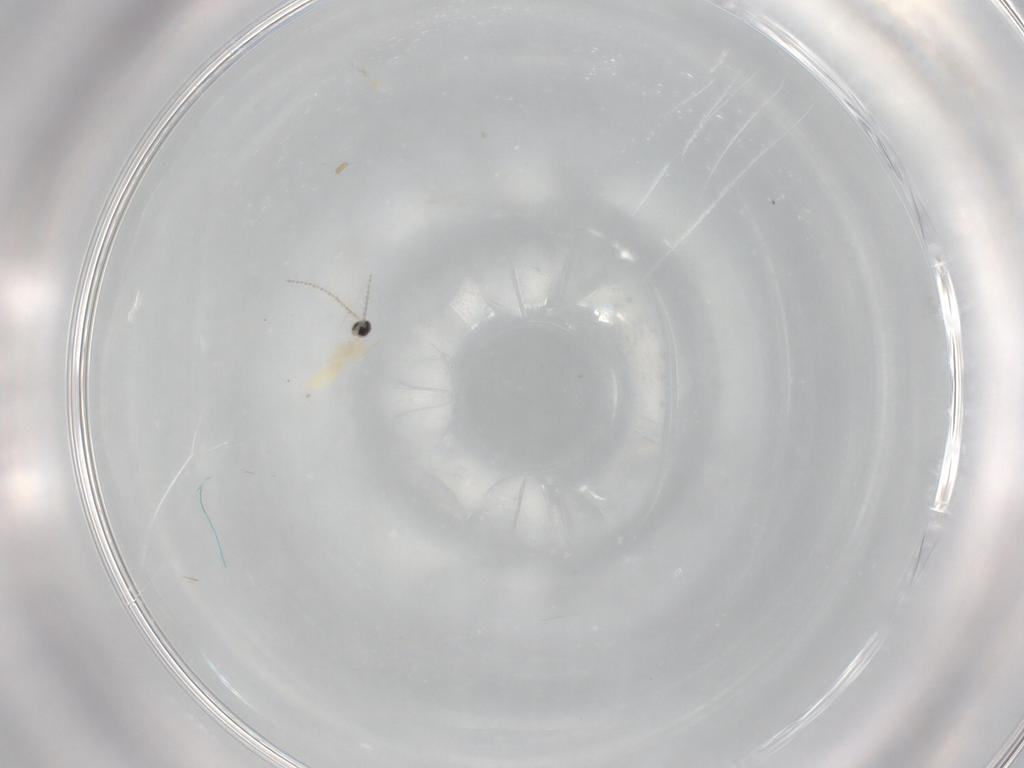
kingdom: Animalia
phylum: Arthropoda
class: Insecta
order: Diptera
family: Cecidomyiidae
